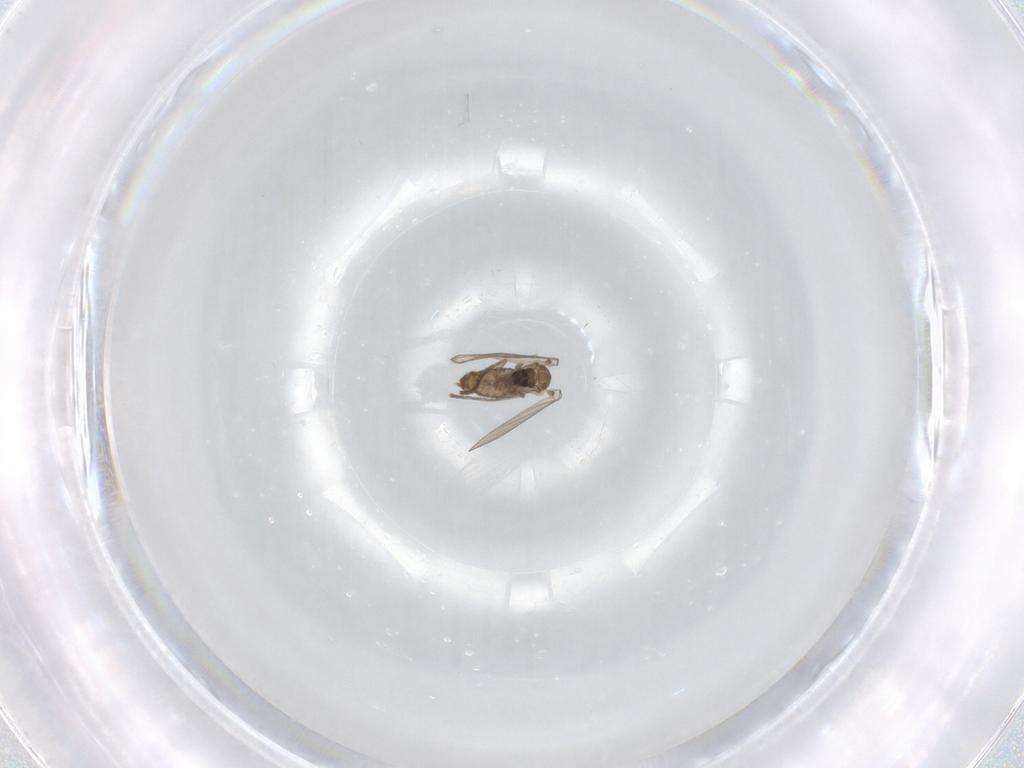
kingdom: Animalia
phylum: Arthropoda
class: Insecta
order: Diptera
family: Psychodidae
